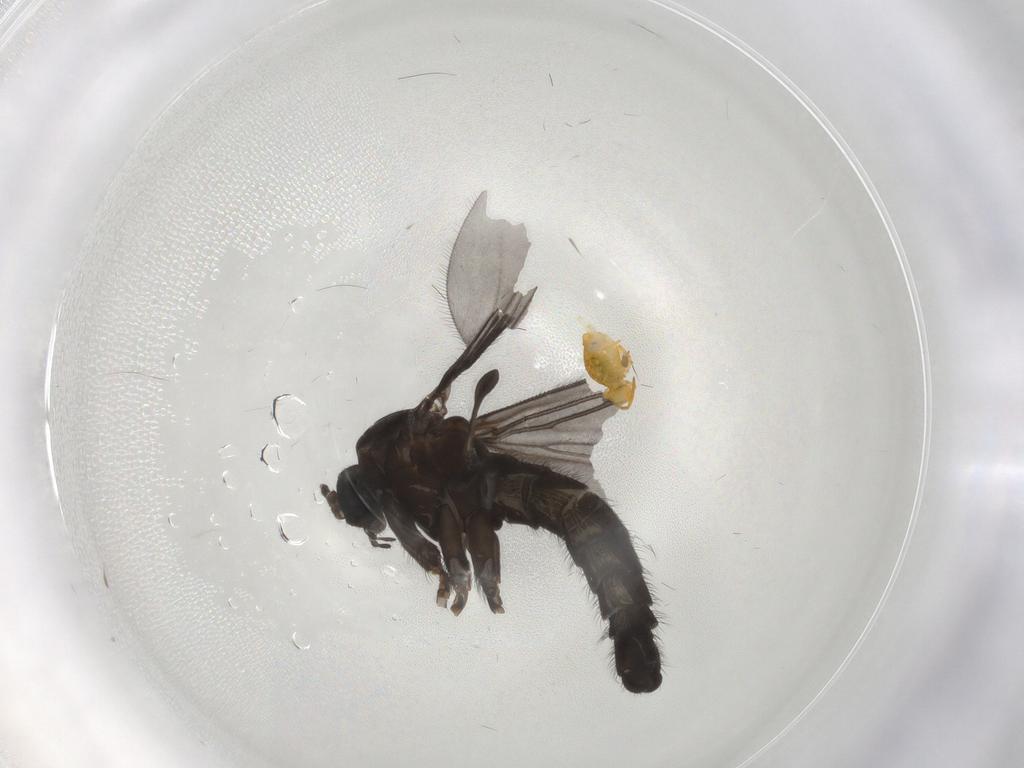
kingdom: Animalia
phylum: Arthropoda
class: Insecta
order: Diptera
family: Sciaridae
